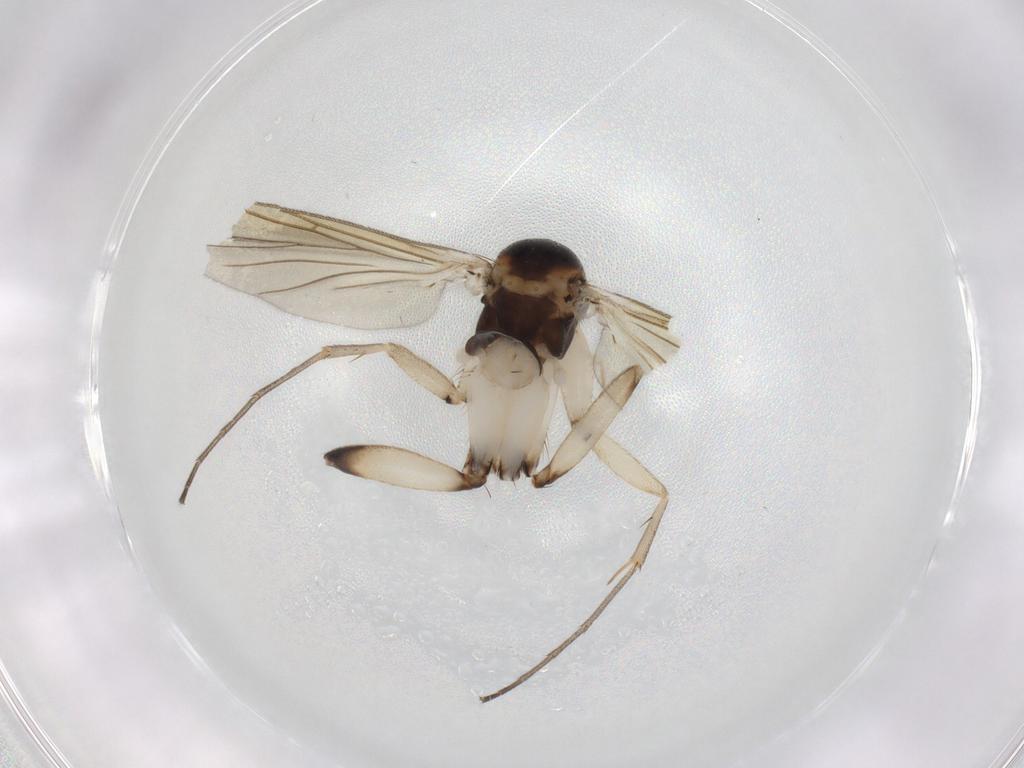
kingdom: Animalia
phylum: Arthropoda
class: Insecta
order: Diptera
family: Mycetophilidae
